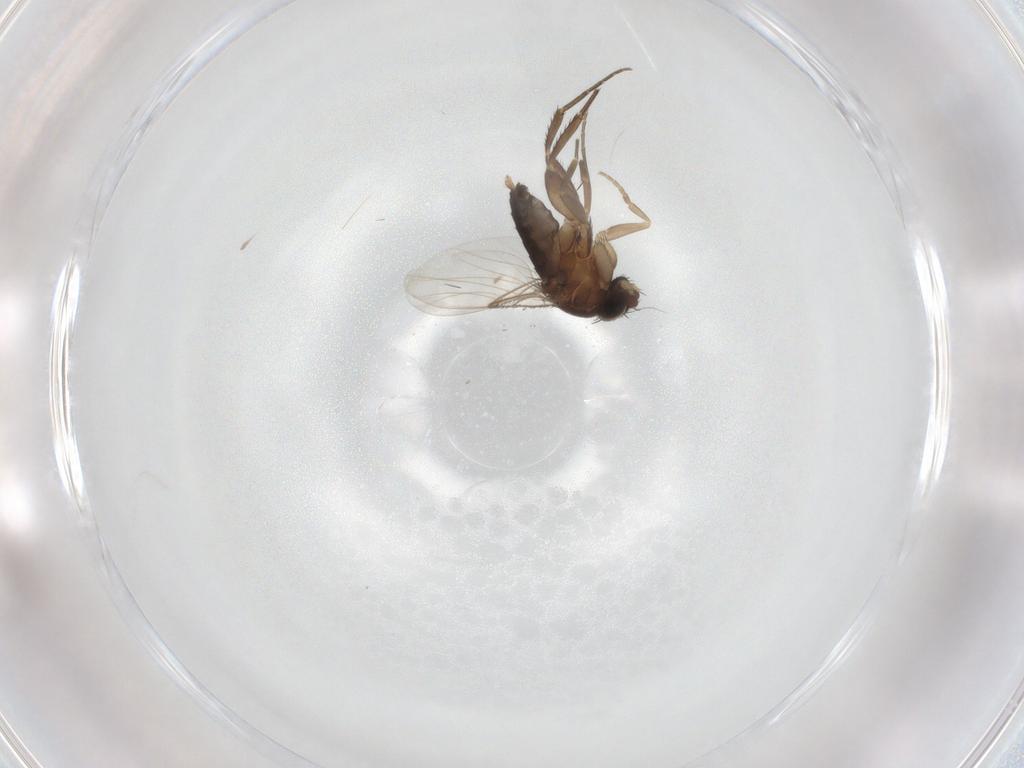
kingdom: Animalia
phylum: Arthropoda
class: Insecta
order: Diptera
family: Phoridae
